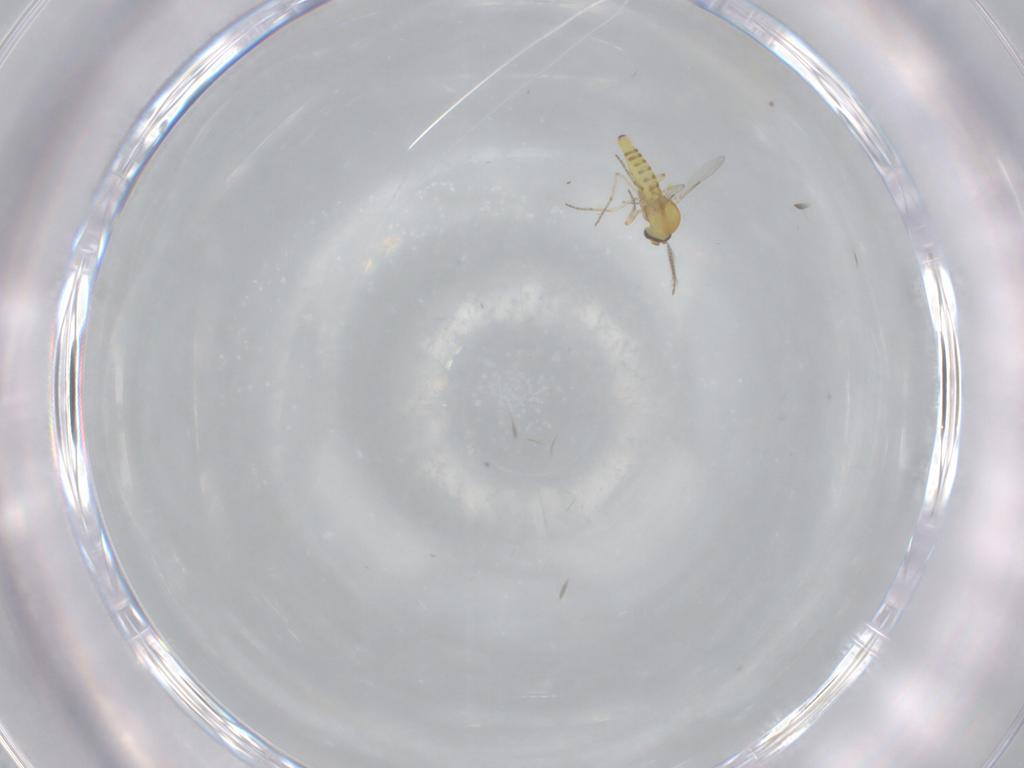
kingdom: Animalia
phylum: Arthropoda
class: Insecta
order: Diptera
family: Ceratopogonidae
